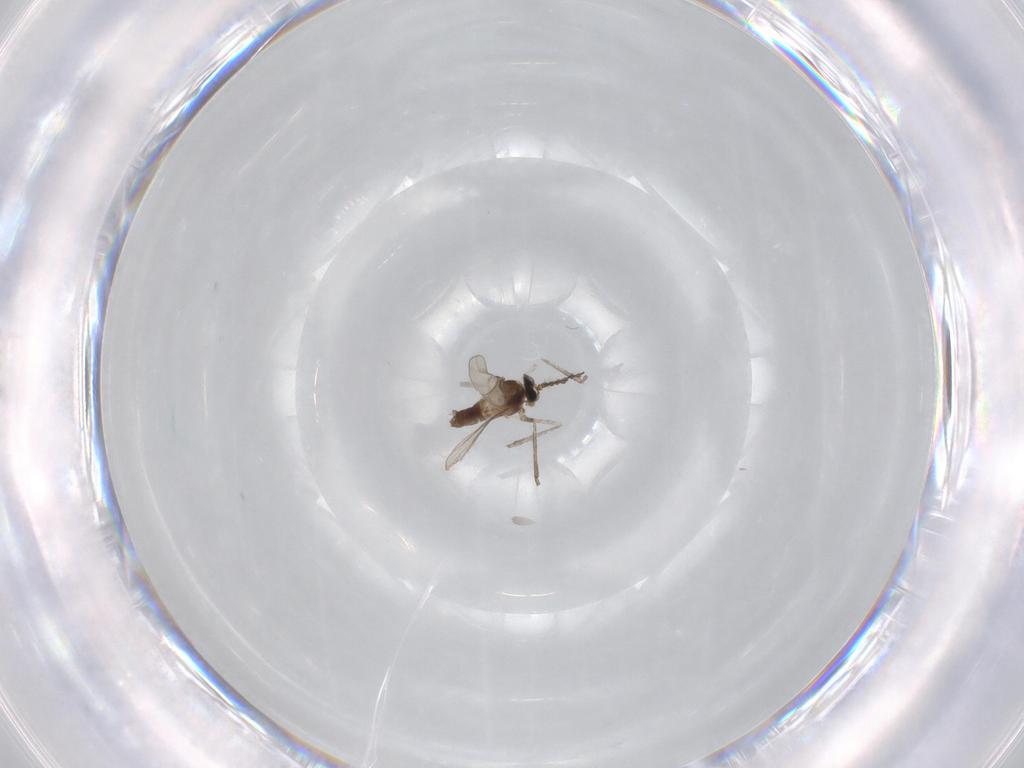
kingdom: Animalia
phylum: Arthropoda
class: Insecta
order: Diptera
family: Cecidomyiidae
